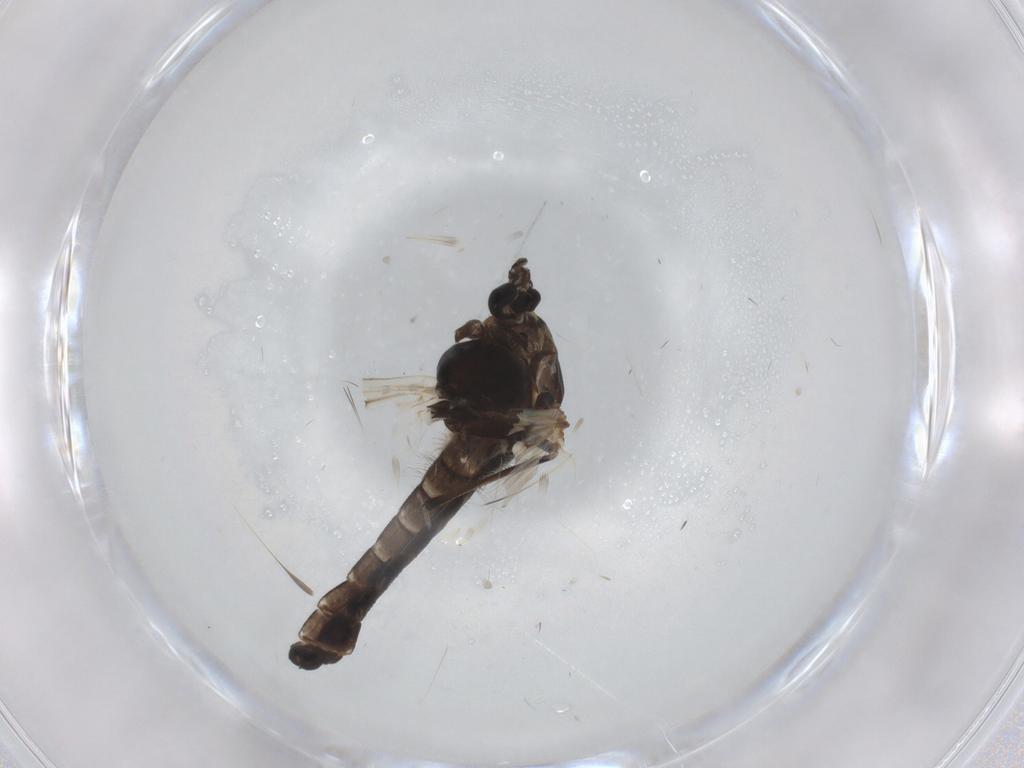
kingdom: Animalia
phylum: Arthropoda
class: Insecta
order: Diptera
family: Chironomidae
